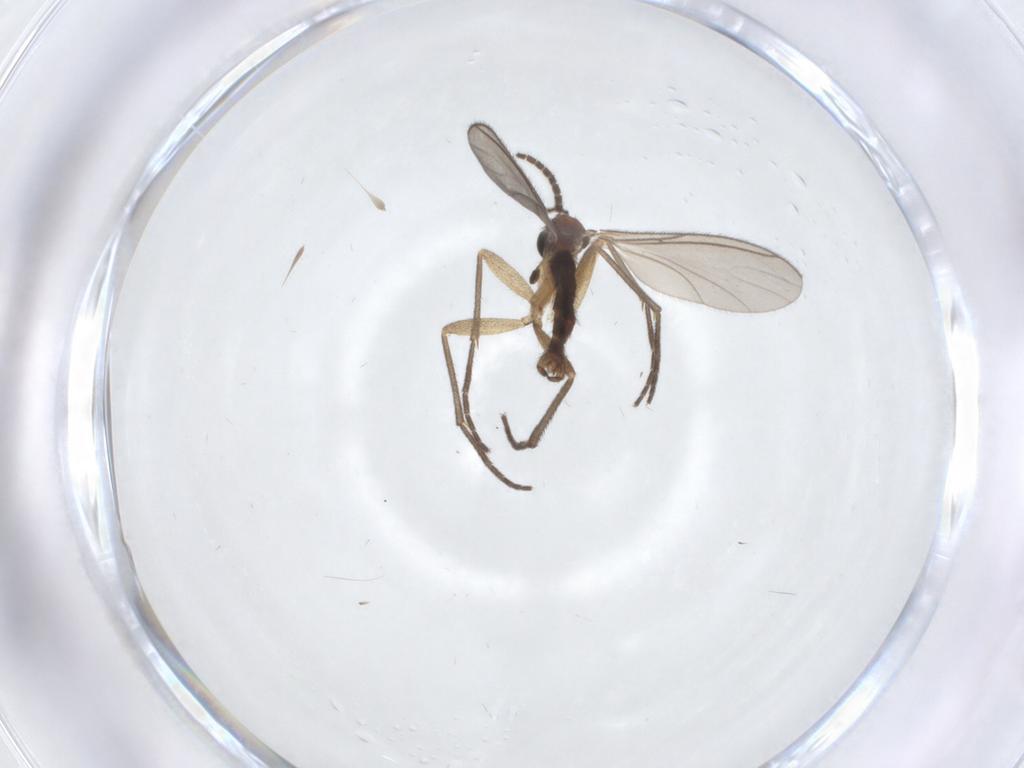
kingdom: Animalia
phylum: Arthropoda
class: Insecta
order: Diptera
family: Sciaridae
